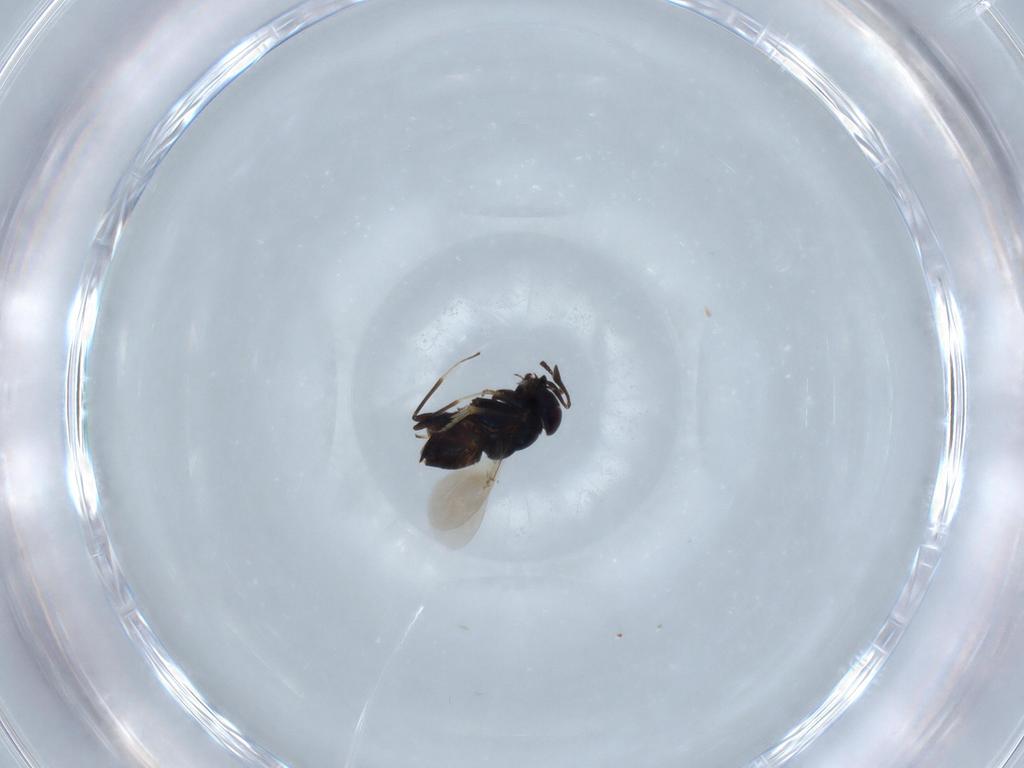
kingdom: Animalia
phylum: Arthropoda
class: Insecta
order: Hymenoptera
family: Encyrtidae
